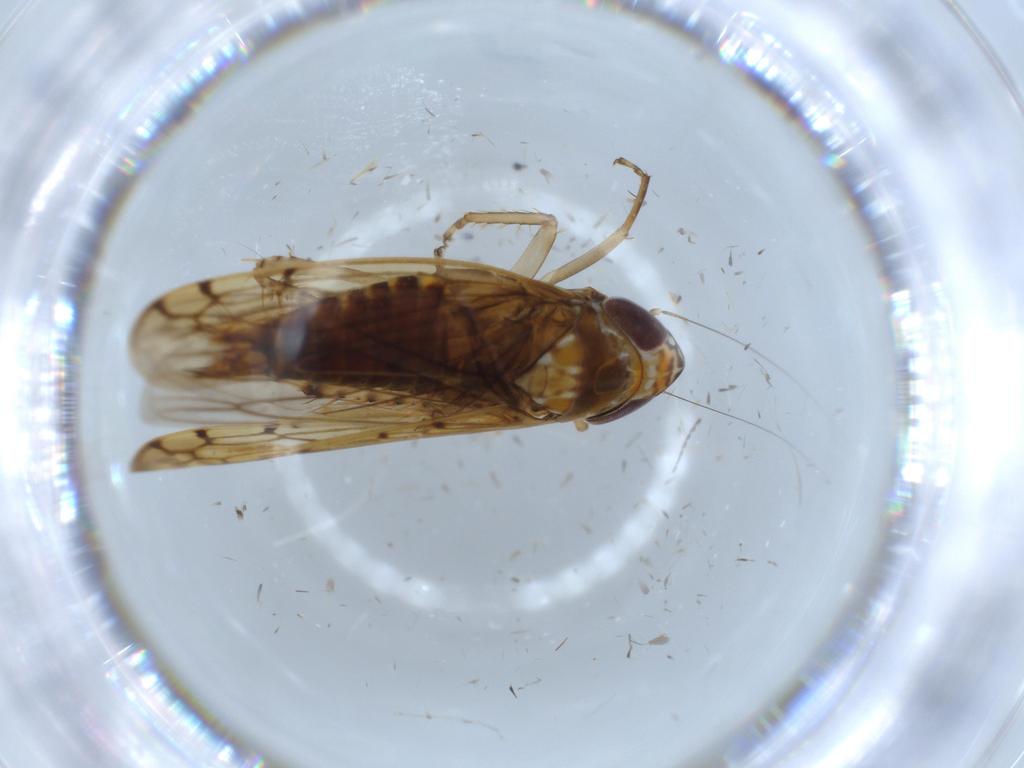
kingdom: Animalia
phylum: Arthropoda
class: Insecta
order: Hemiptera
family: Cicadellidae
